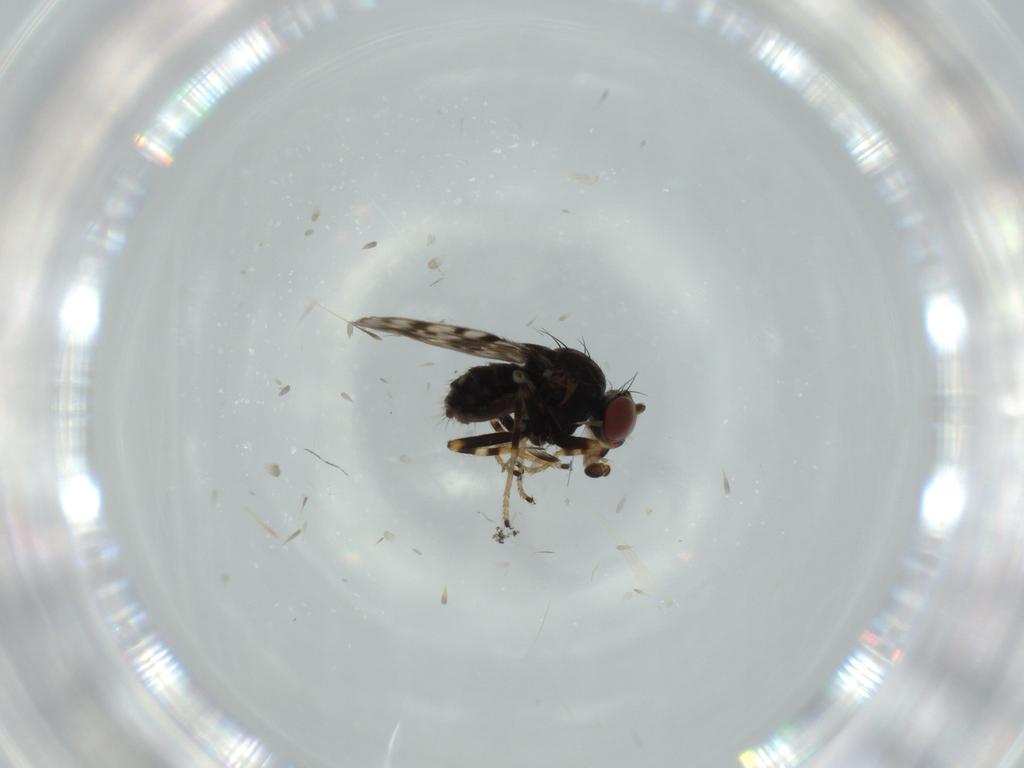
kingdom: Animalia
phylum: Arthropoda
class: Insecta
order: Diptera
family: Ephydridae
